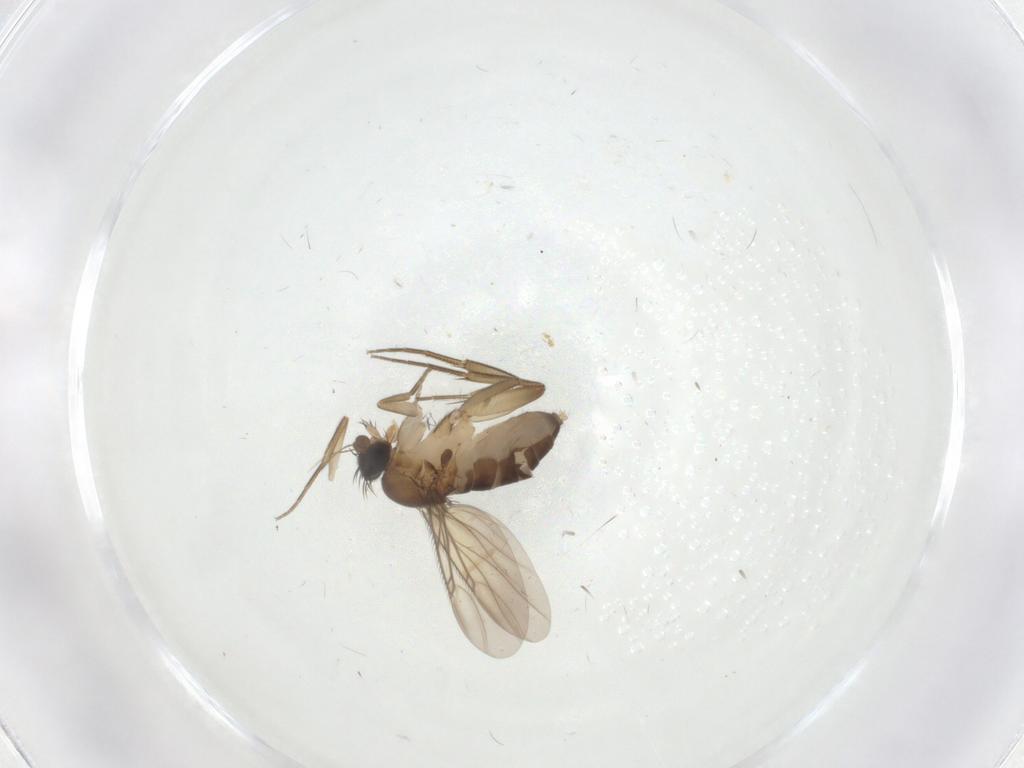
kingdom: Animalia
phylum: Arthropoda
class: Insecta
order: Diptera
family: Phoridae
